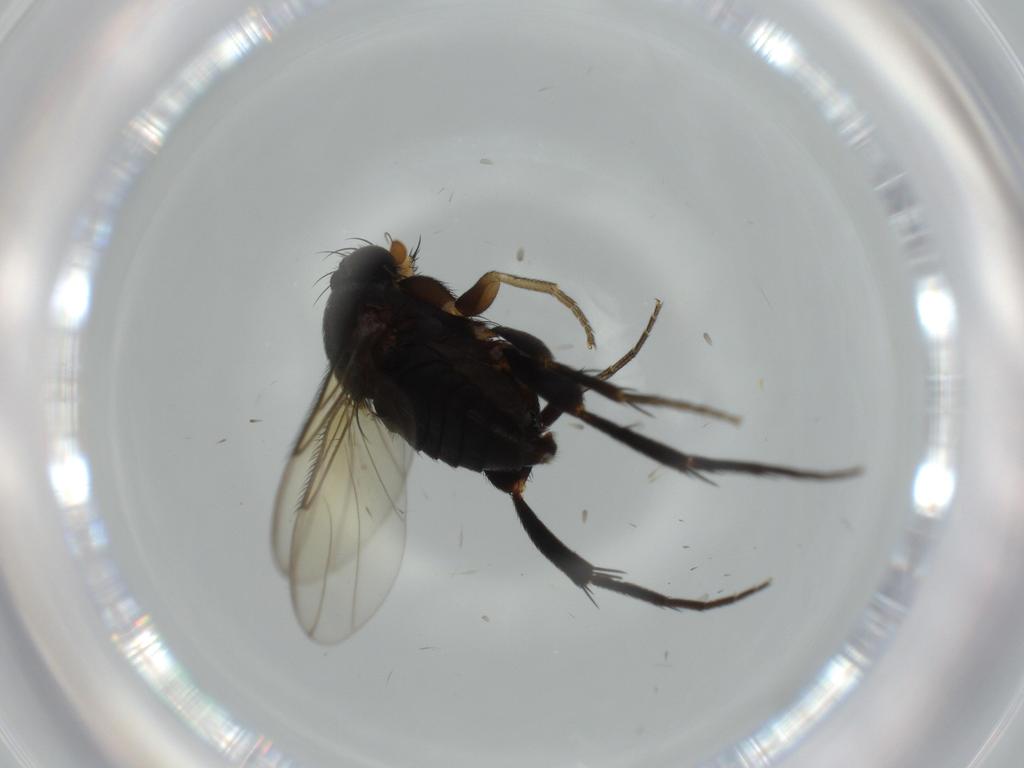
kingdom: Animalia
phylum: Arthropoda
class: Insecta
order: Diptera
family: Phoridae
